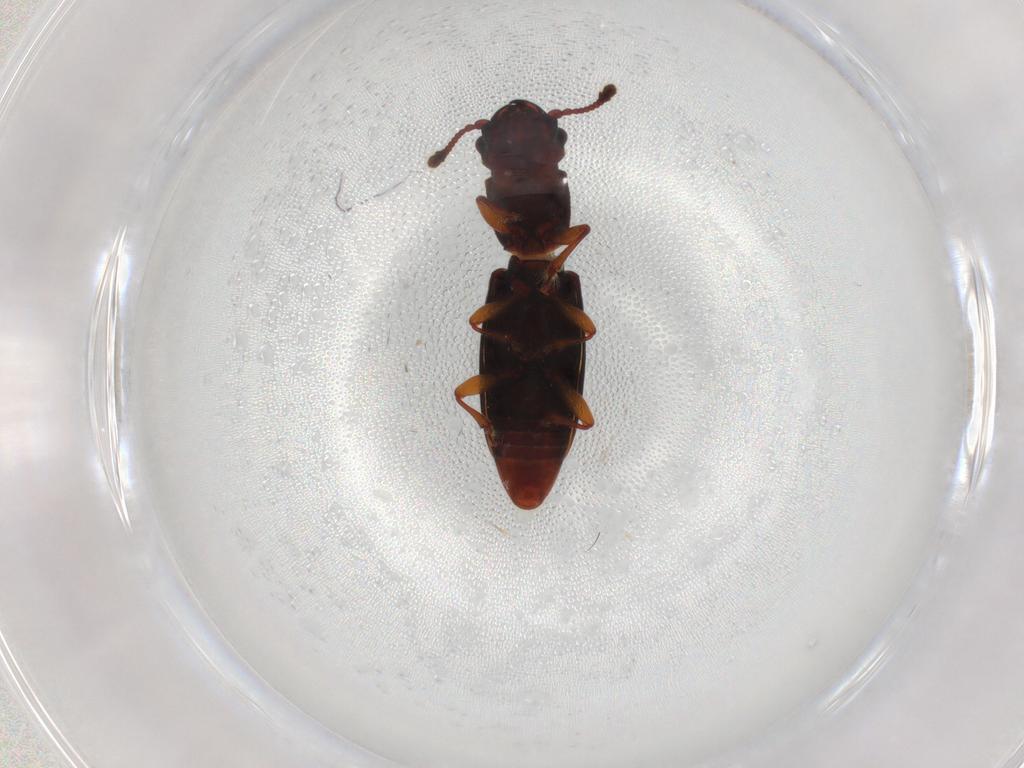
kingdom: Animalia
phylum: Arthropoda
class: Insecta
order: Coleoptera
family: Monotomidae
